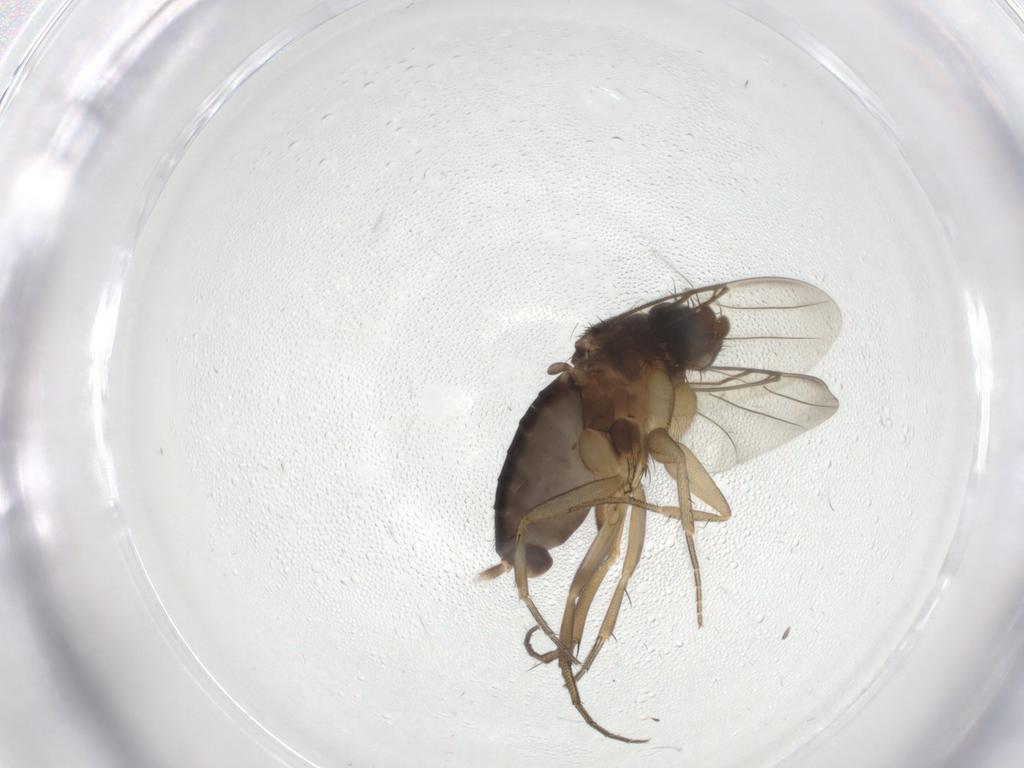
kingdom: Animalia
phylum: Arthropoda
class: Insecta
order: Diptera
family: Phoridae
